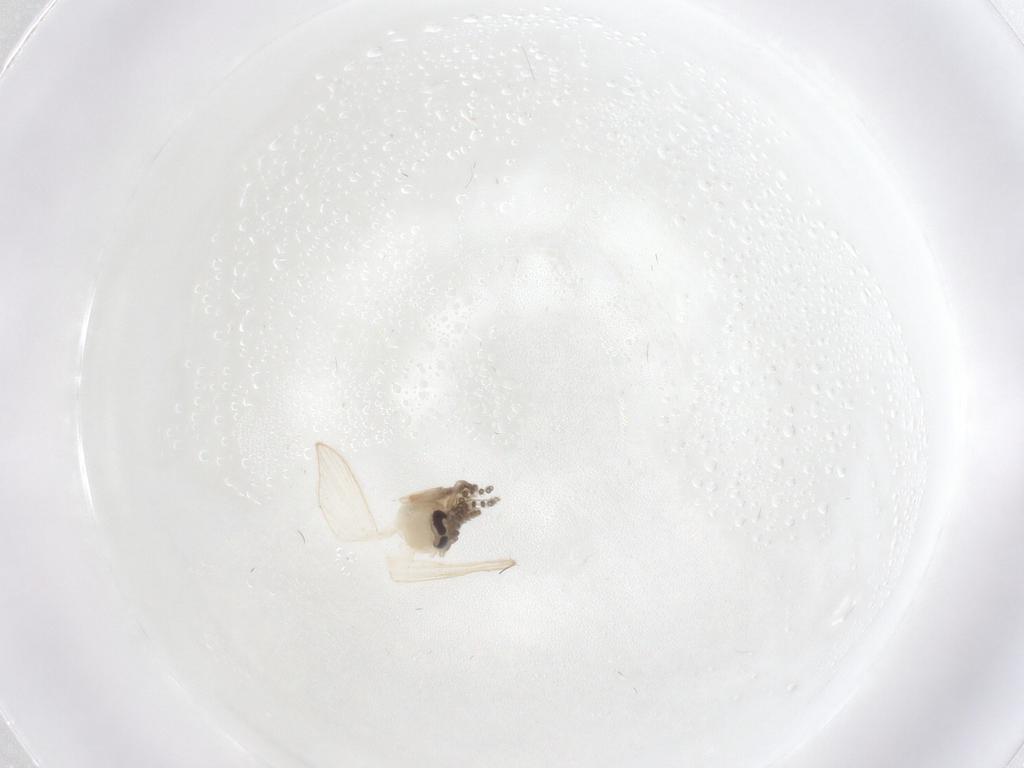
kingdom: Animalia
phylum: Arthropoda
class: Insecta
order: Diptera
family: Psychodidae
